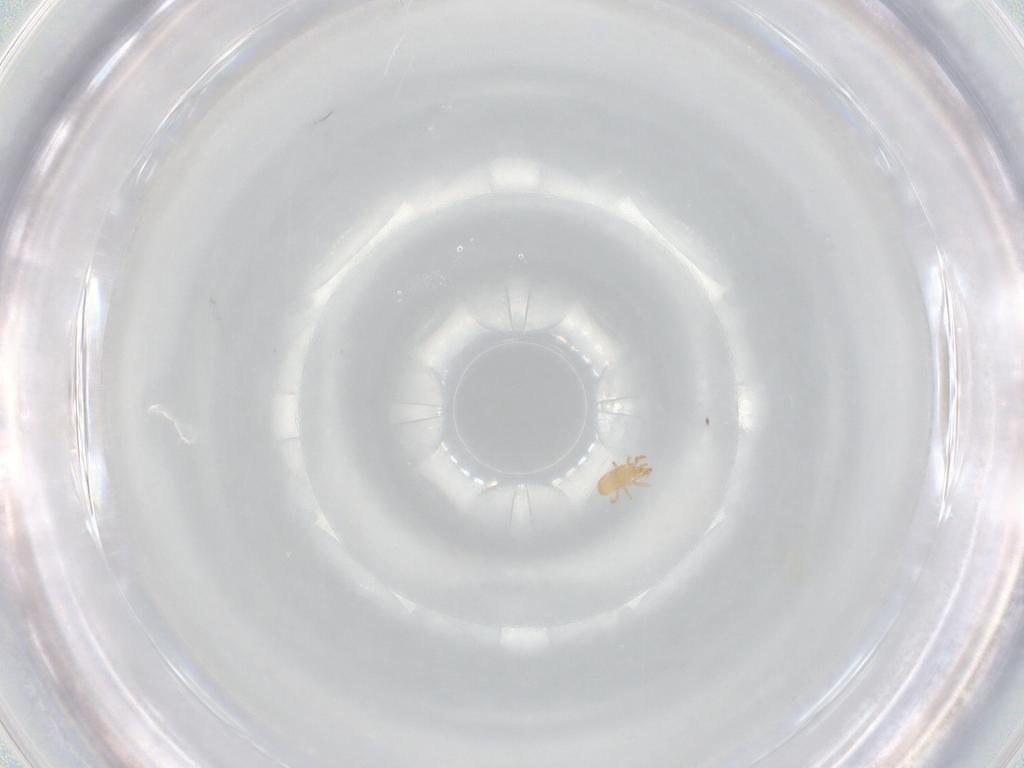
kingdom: Animalia
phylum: Arthropoda
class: Arachnida
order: Mesostigmata
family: Ascidae
